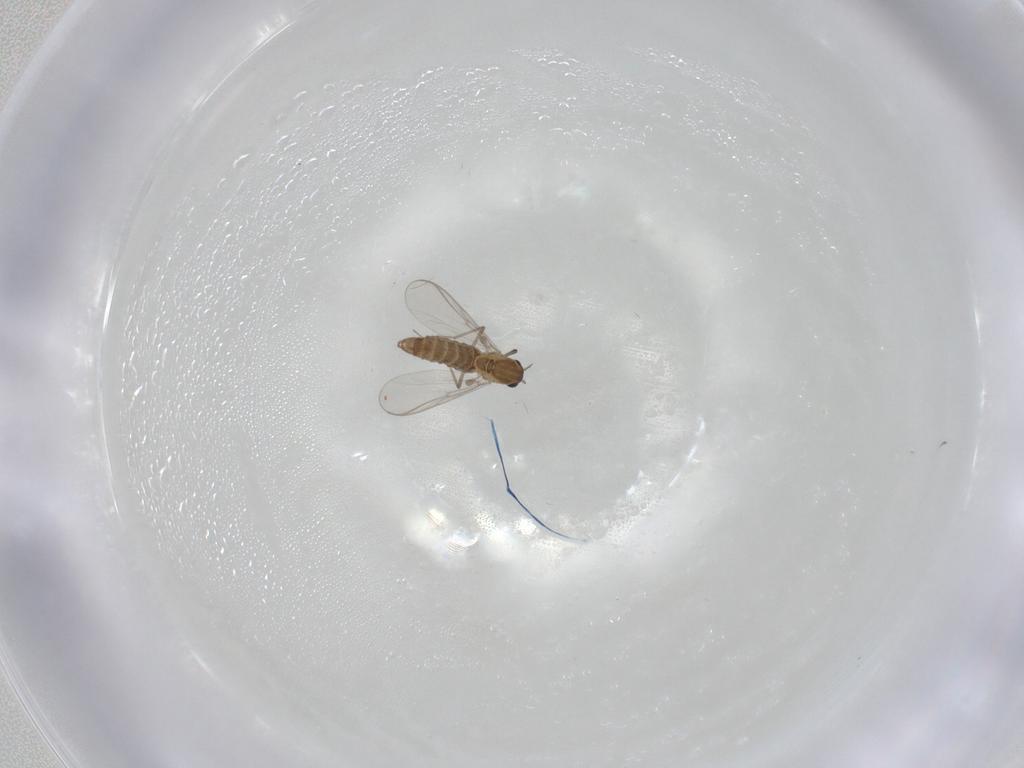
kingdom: Animalia
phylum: Arthropoda
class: Insecta
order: Diptera
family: Chironomidae
